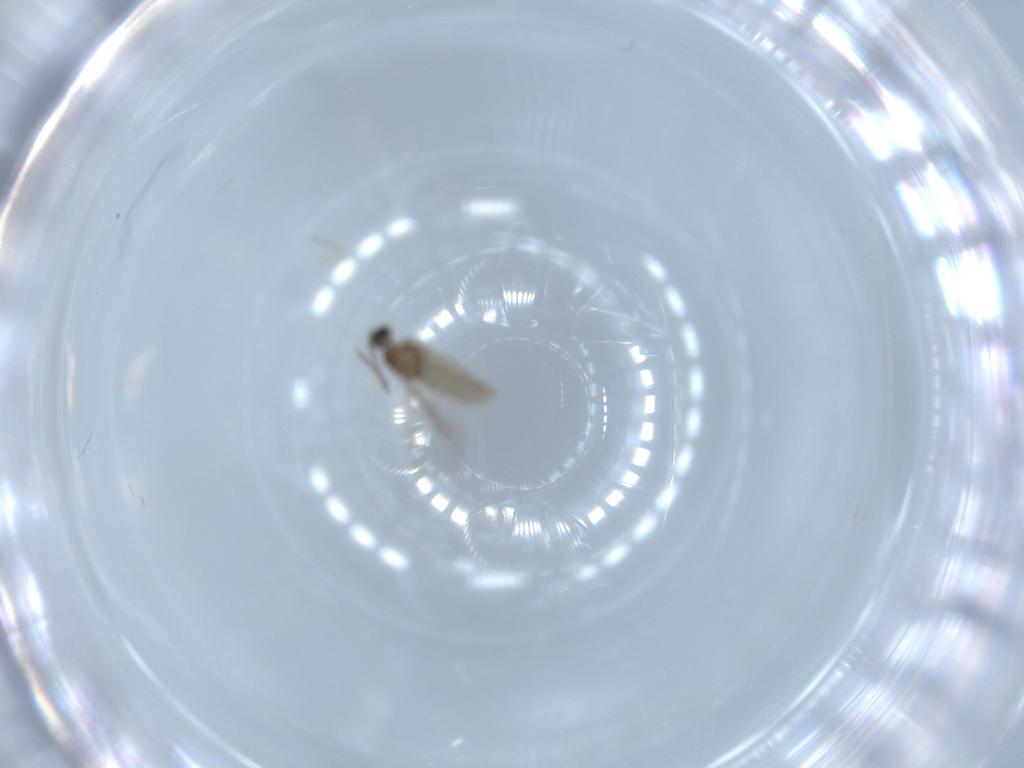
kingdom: Animalia
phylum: Arthropoda
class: Insecta
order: Diptera
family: Cecidomyiidae
